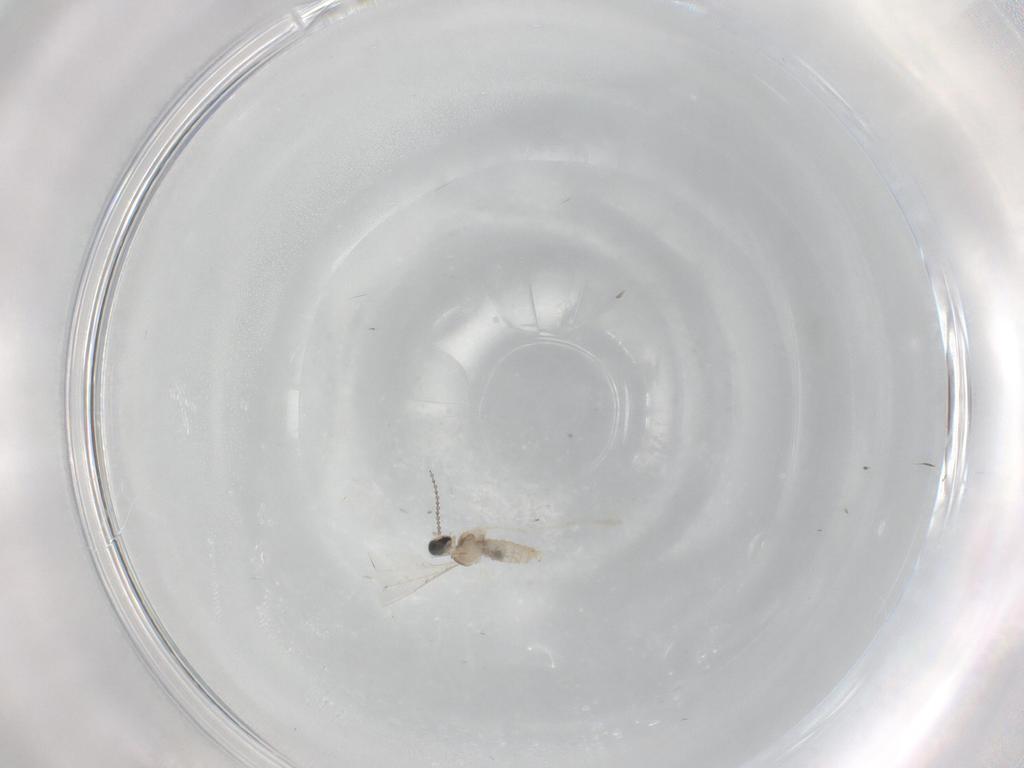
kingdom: Animalia
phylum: Arthropoda
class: Insecta
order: Diptera
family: Cecidomyiidae
